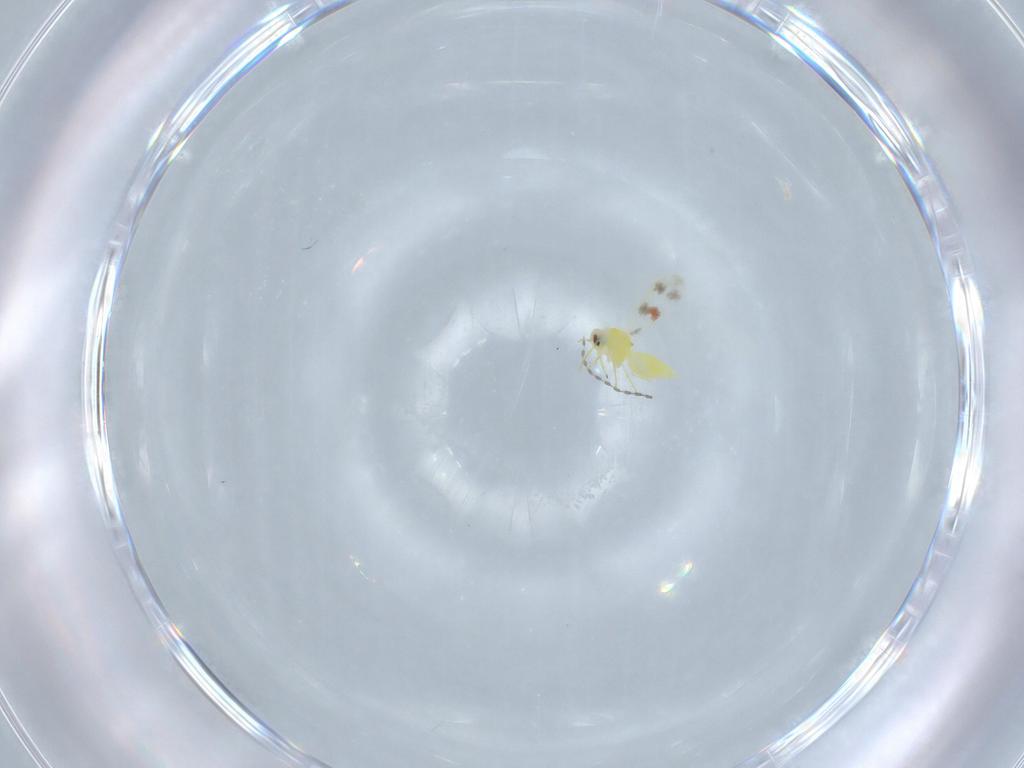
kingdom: Animalia
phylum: Arthropoda
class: Insecta
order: Hemiptera
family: Aleyrodidae
